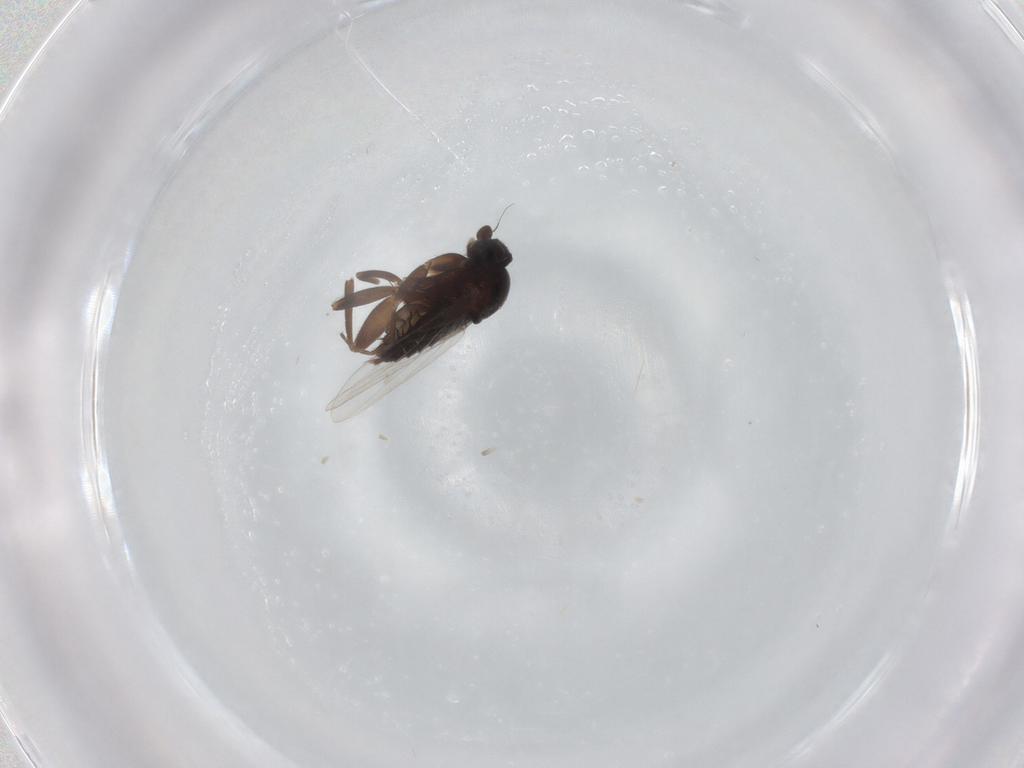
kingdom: Animalia
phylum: Arthropoda
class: Insecta
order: Diptera
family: Phoridae
